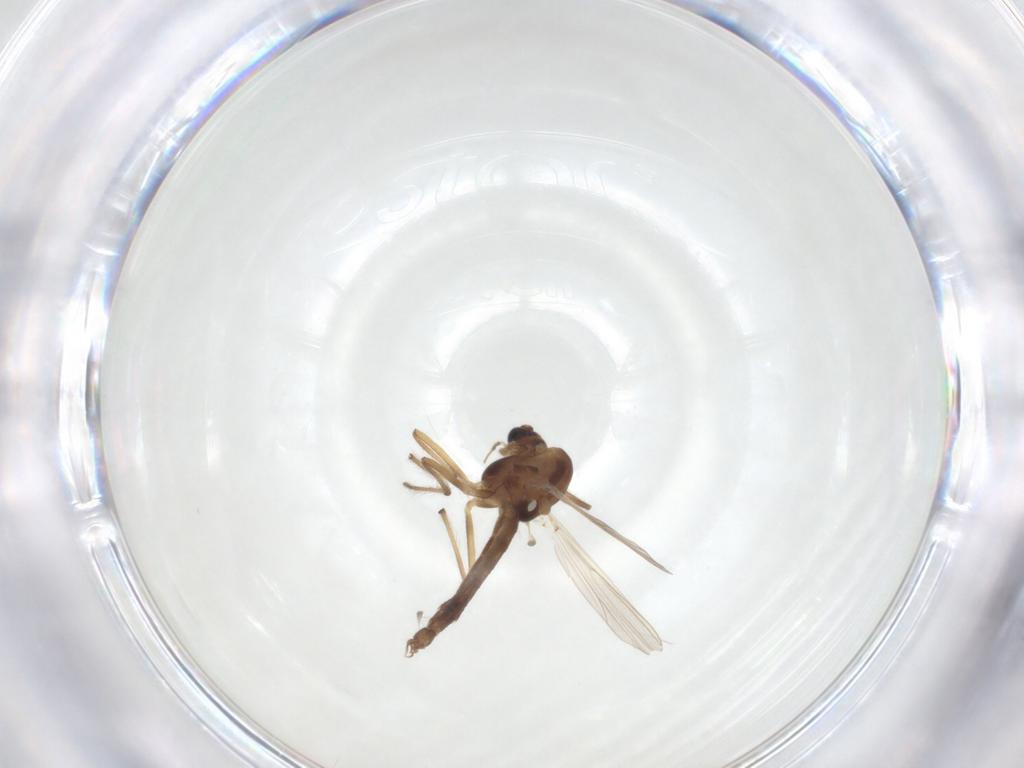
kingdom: Animalia
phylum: Arthropoda
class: Insecta
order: Diptera
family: Chironomidae
